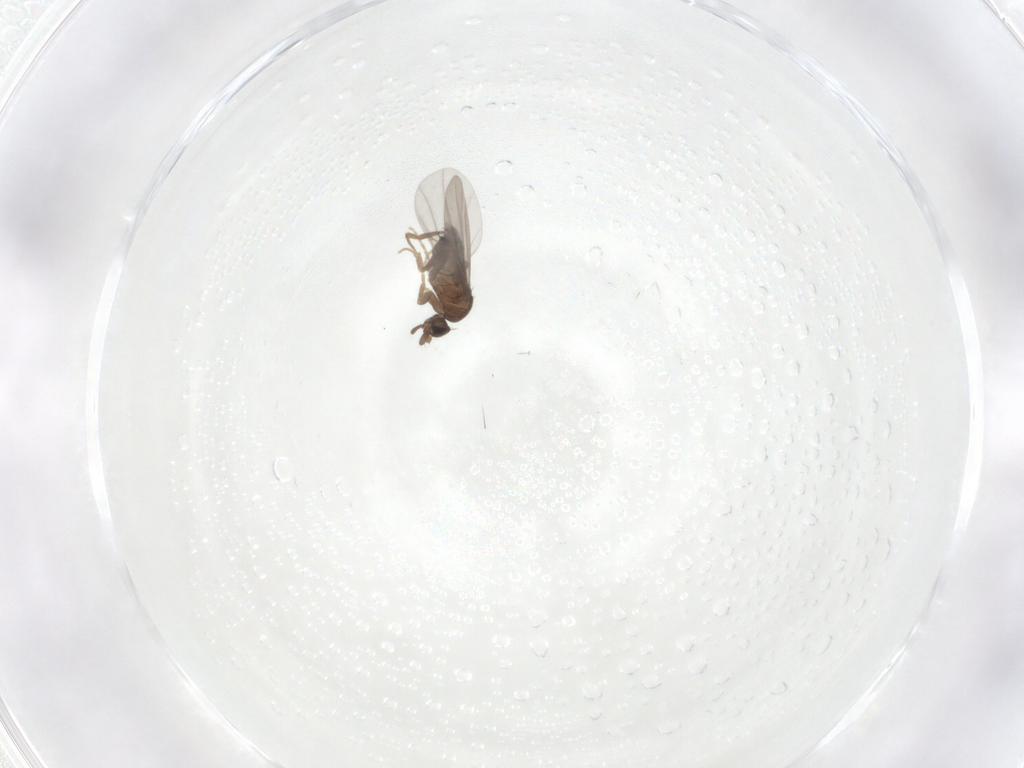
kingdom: Animalia
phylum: Arthropoda
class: Insecta
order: Diptera
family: Phoridae
